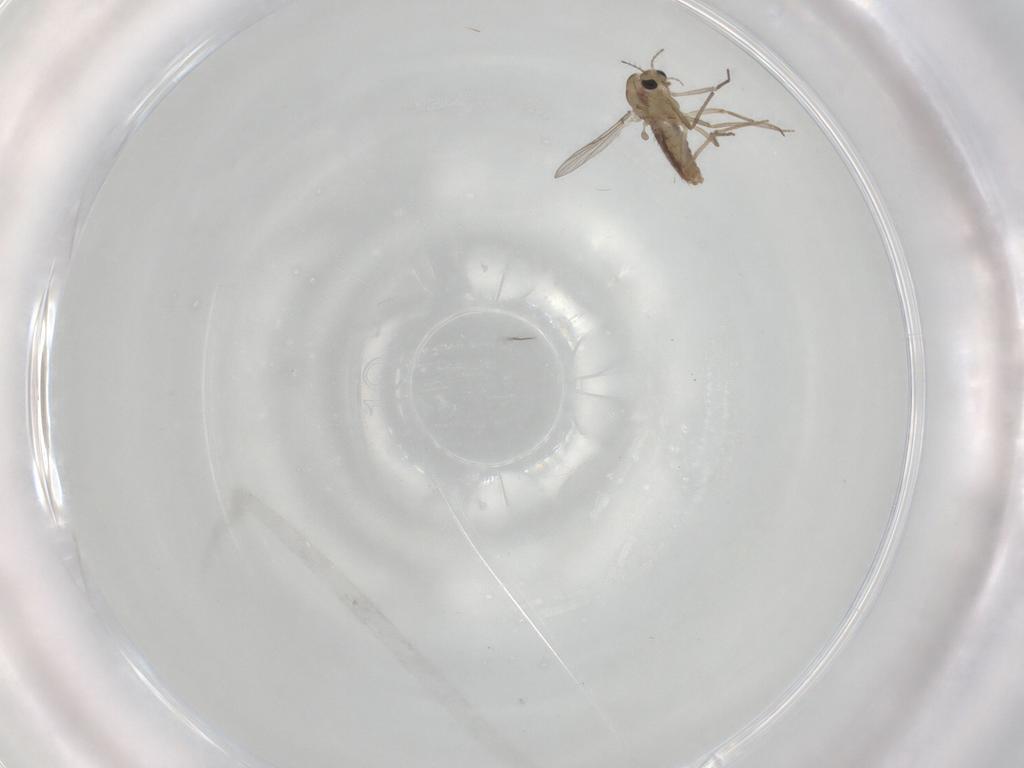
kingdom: Animalia
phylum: Arthropoda
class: Insecta
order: Diptera
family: Chironomidae
